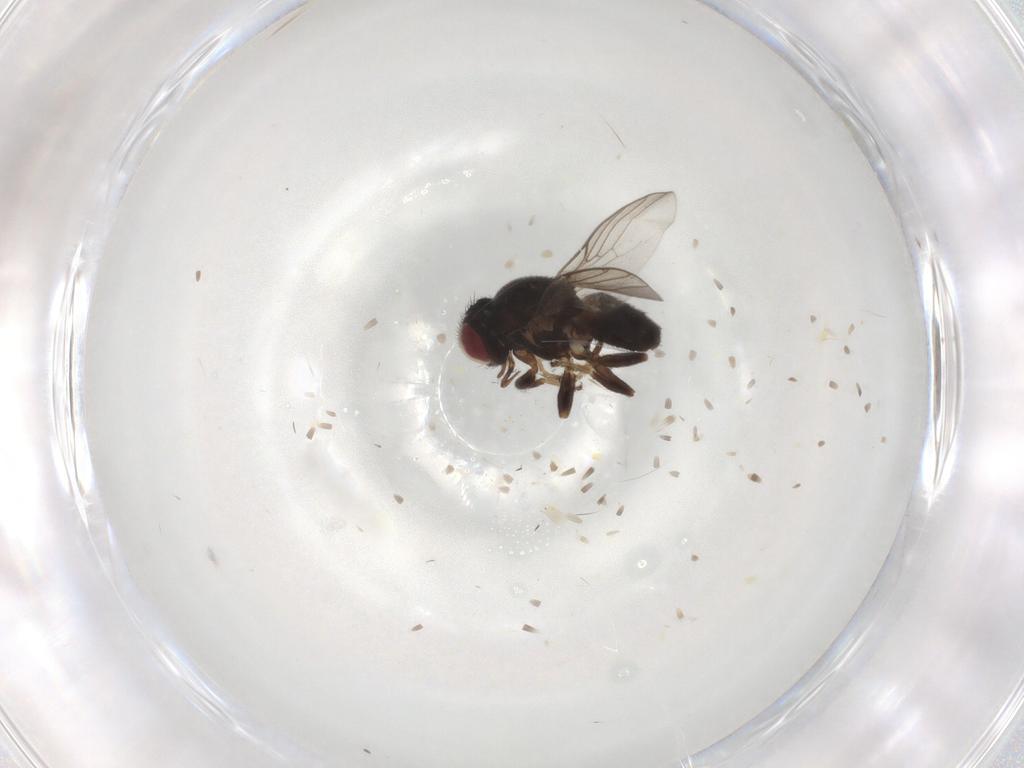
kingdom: Animalia
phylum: Arthropoda
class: Insecta
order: Diptera
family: Chloropidae
